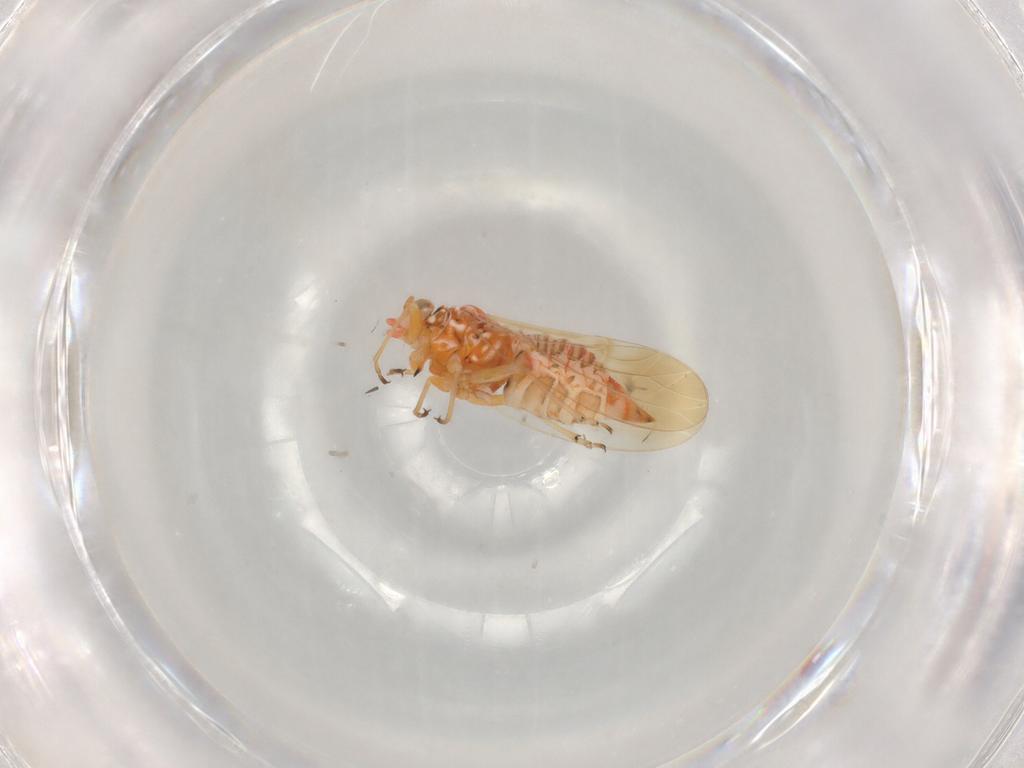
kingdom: Animalia
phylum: Arthropoda
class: Insecta
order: Hemiptera
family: Psyllidae
